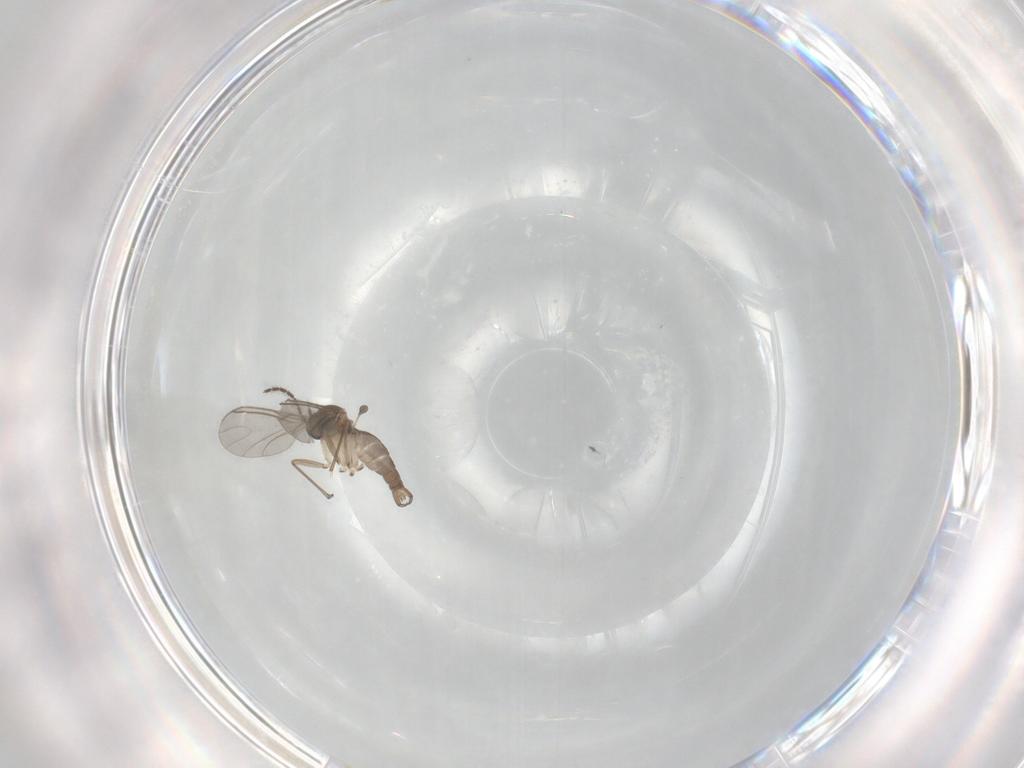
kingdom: Animalia
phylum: Arthropoda
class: Insecta
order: Diptera
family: Sciaridae
